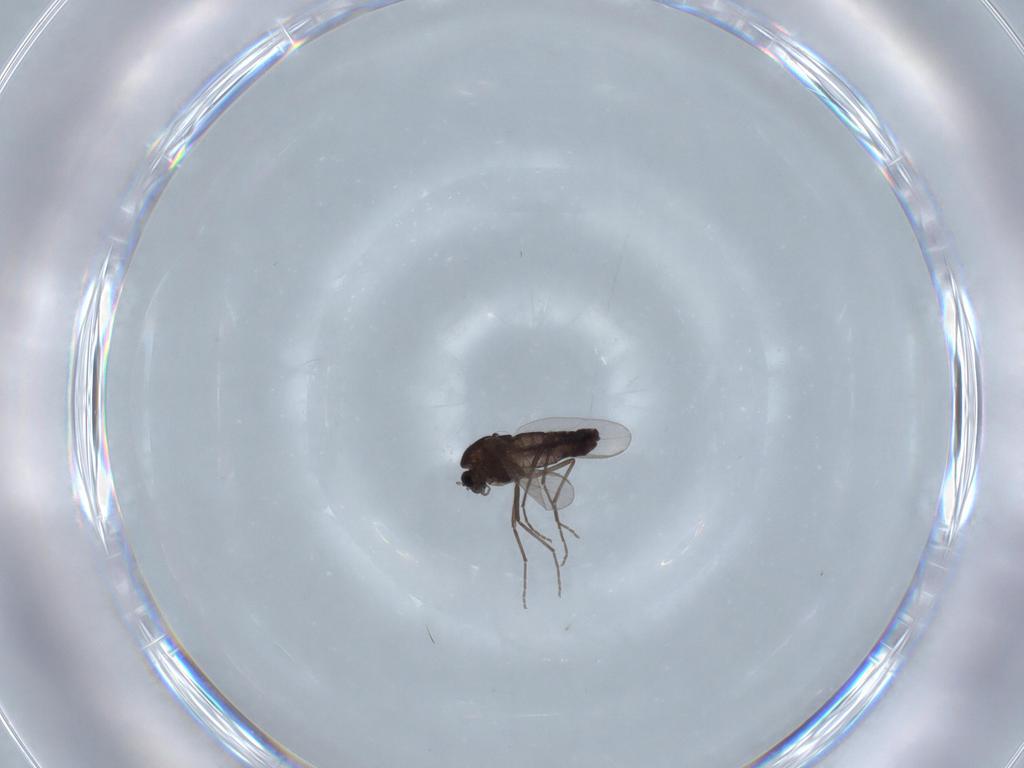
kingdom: Animalia
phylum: Arthropoda
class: Insecta
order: Diptera
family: Chironomidae
